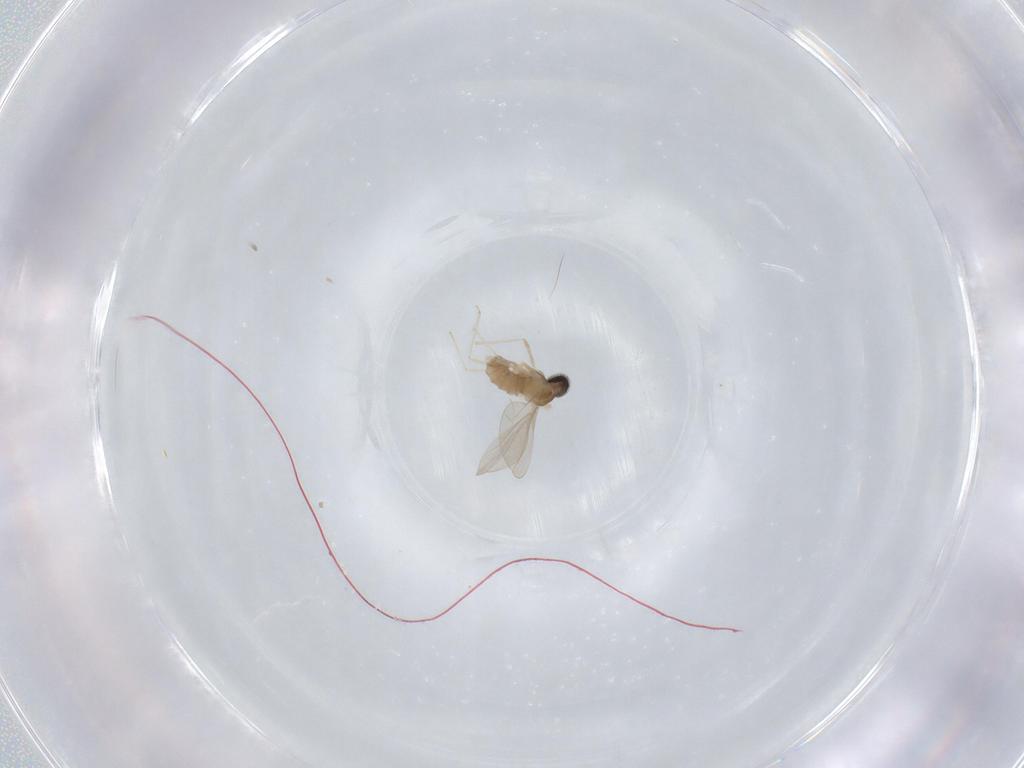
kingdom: Animalia
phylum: Arthropoda
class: Insecta
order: Diptera
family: Cecidomyiidae
